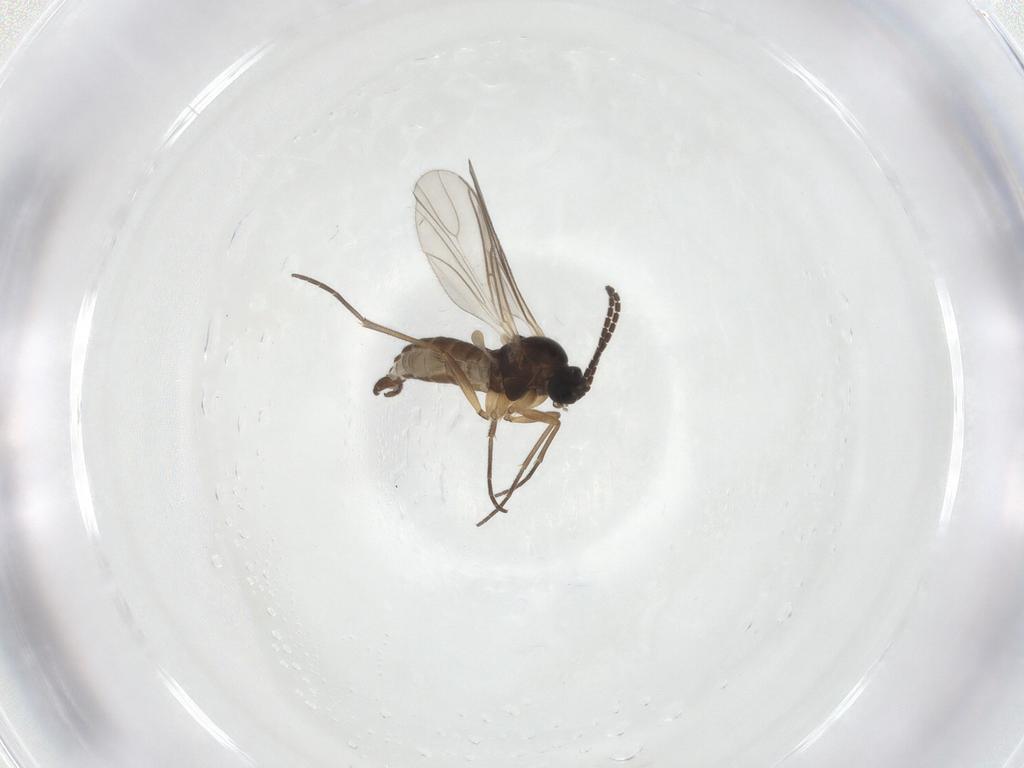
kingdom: Animalia
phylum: Arthropoda
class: Insecta
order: Diptera
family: Sciaridae
